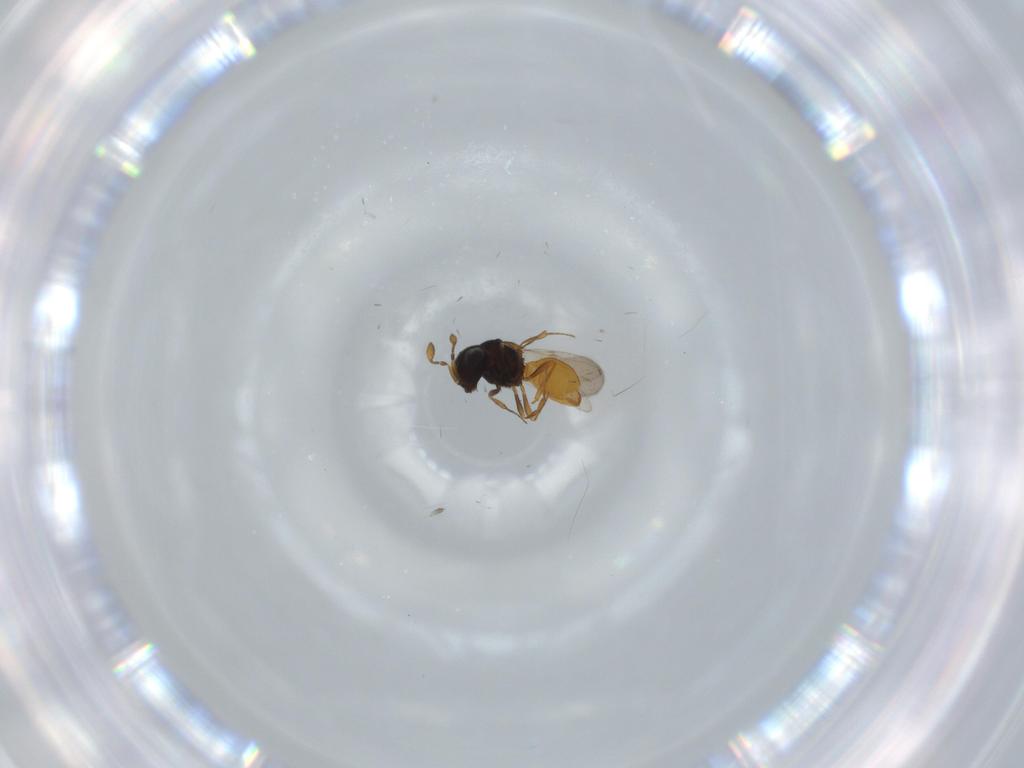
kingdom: Animalia
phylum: Arthropoda
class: Insecta
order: Hymenoptera
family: Scelionidae
